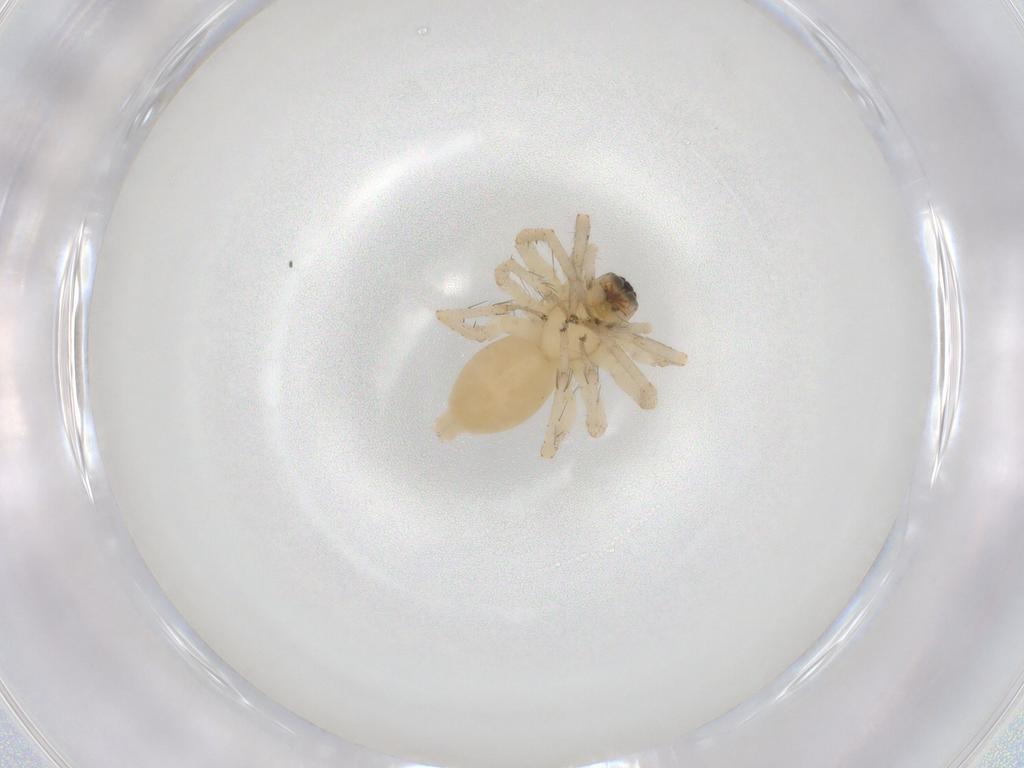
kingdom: Animalia
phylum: Arthropoda
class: Arachnida
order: Araneae
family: Anyphaenidae
